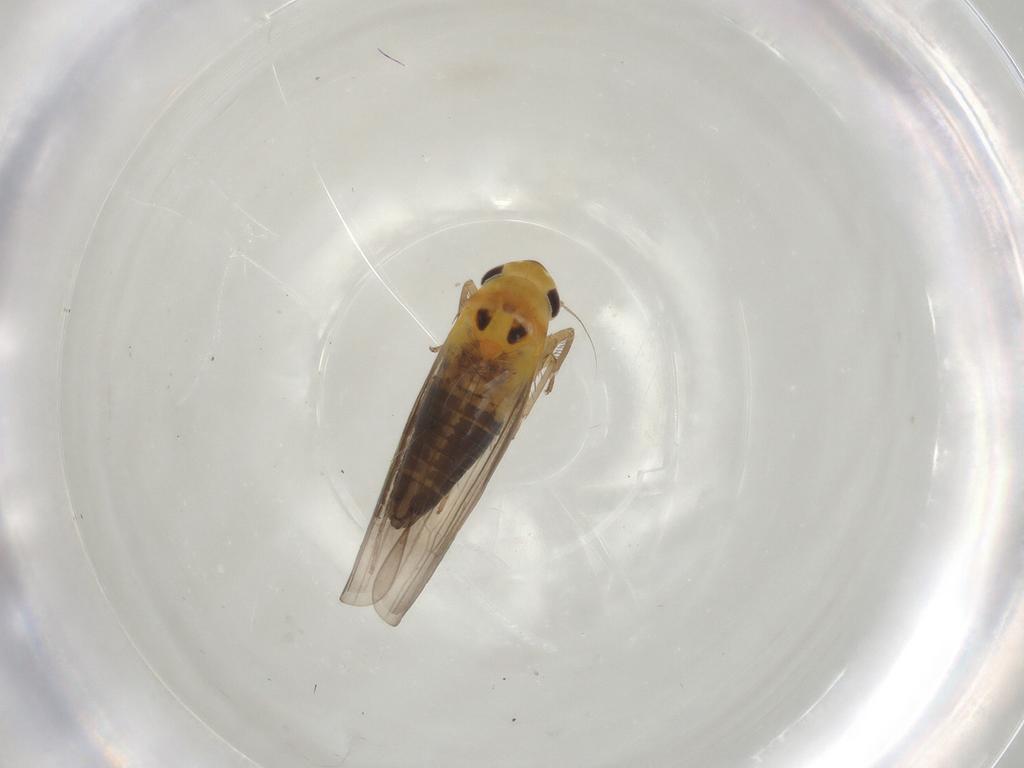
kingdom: Animalia
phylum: Arthropoda
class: Insecta
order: Hemiptera
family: Cicadellidae
